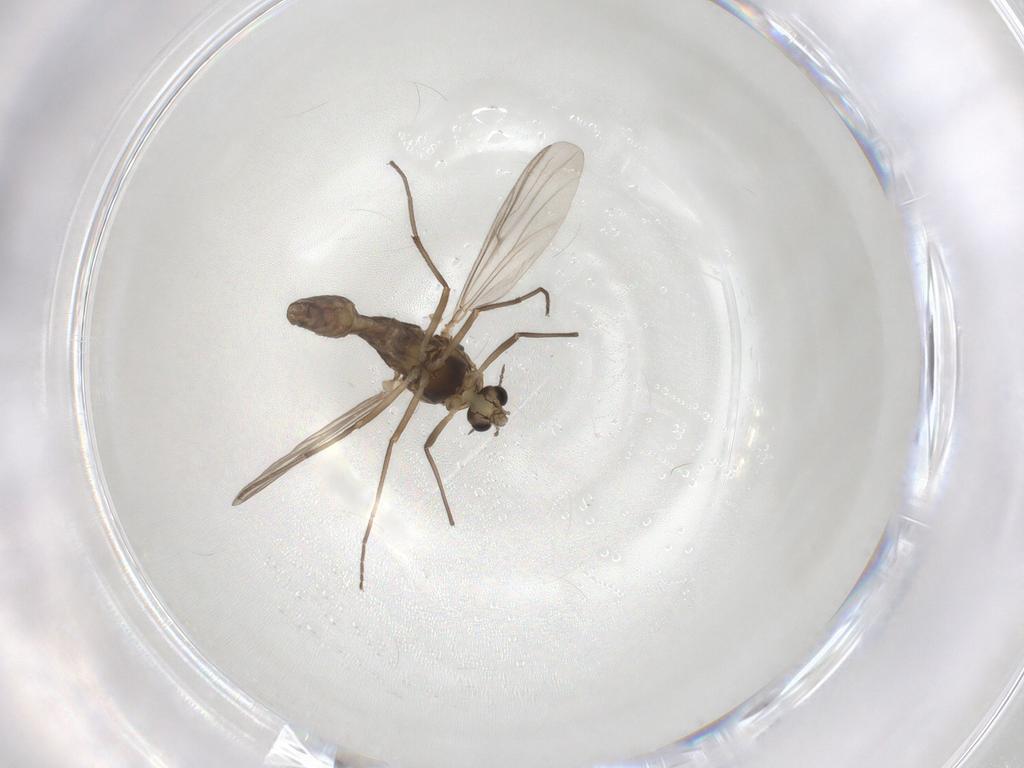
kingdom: Animalia
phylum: Arthropoda
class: Insecta
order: Diptera
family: Chironomidae
